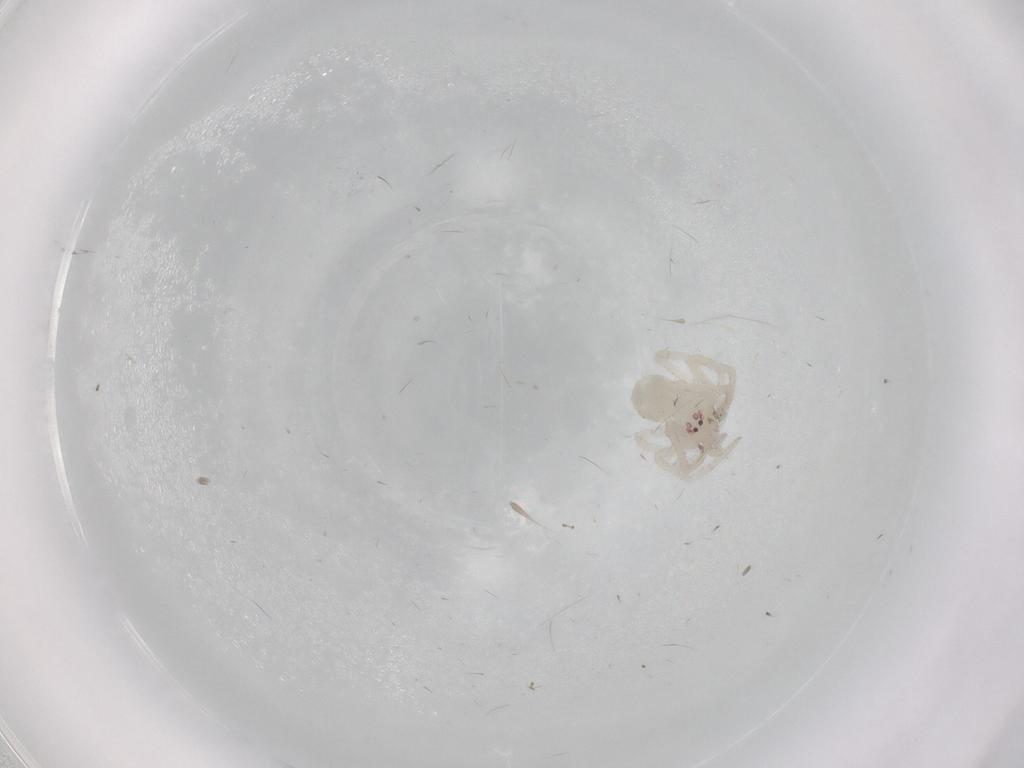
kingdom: Animalia
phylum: Arthropoda
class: Arachnida
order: Araneae
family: Nesticidae
